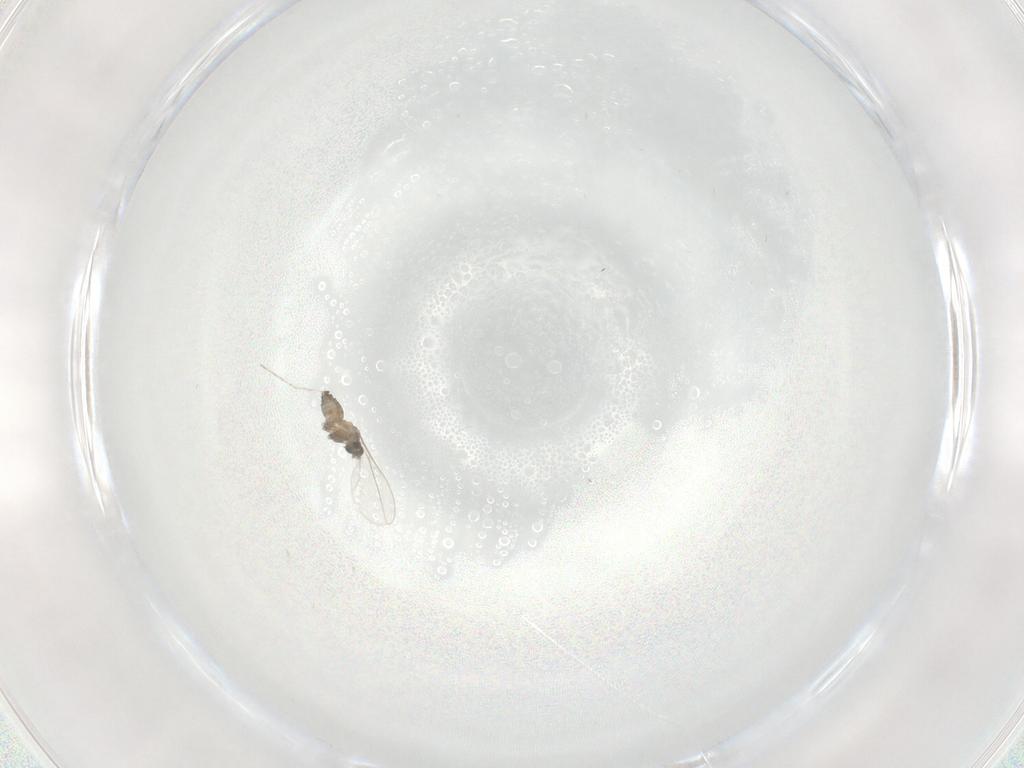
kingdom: Animalia
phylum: Arthropoda
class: Insecta
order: Diptera
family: Cecidomyiidae
